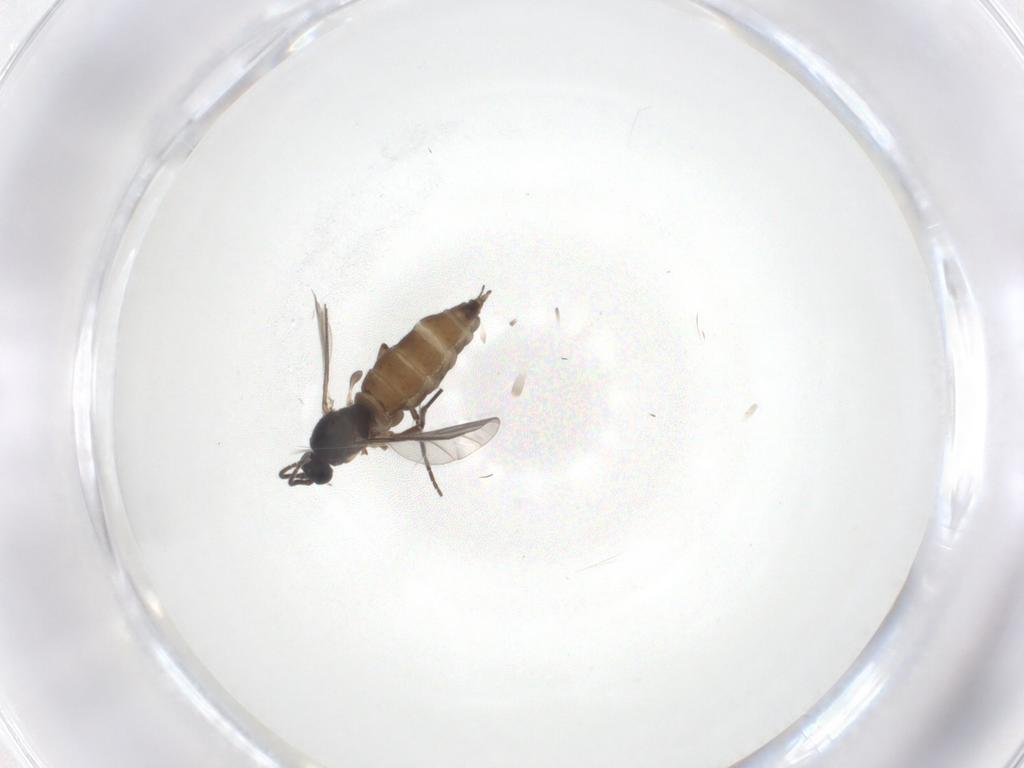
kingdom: Animalia
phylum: Arthropoda
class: Insecta
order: Diptera
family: Sciaridae
